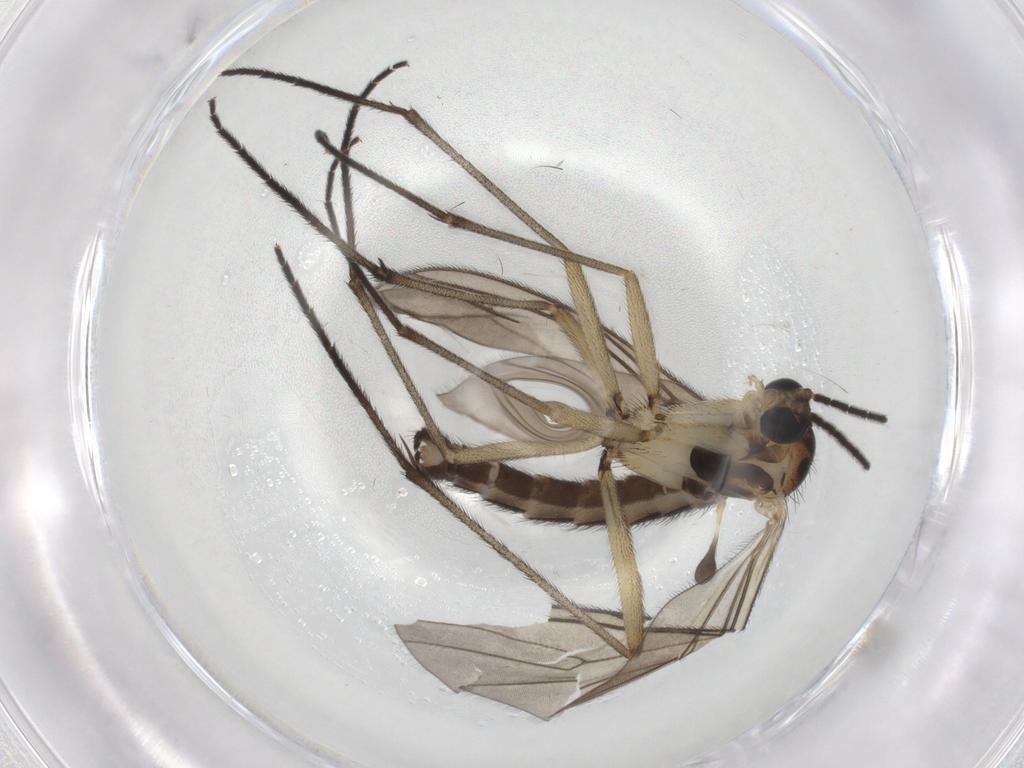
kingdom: Animalia
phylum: Arthropoda
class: Insecta
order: Diptera
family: Sciaridae
